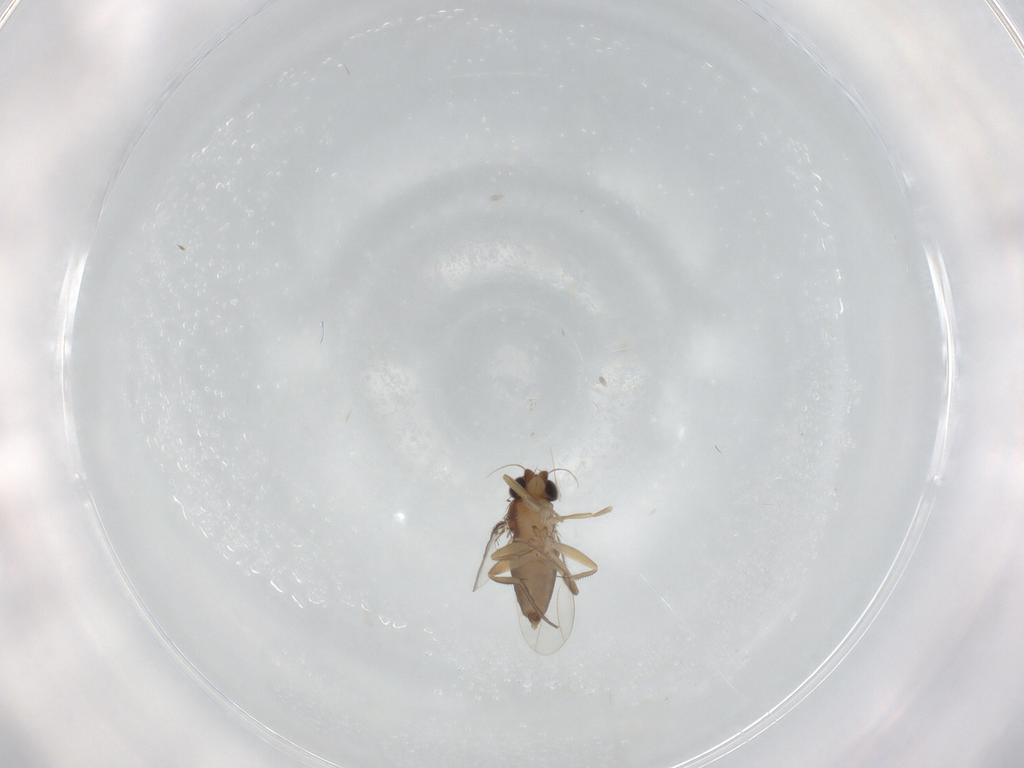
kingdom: Animalia
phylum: Arthropoda
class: Insecta
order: Diptera
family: Phoridae
